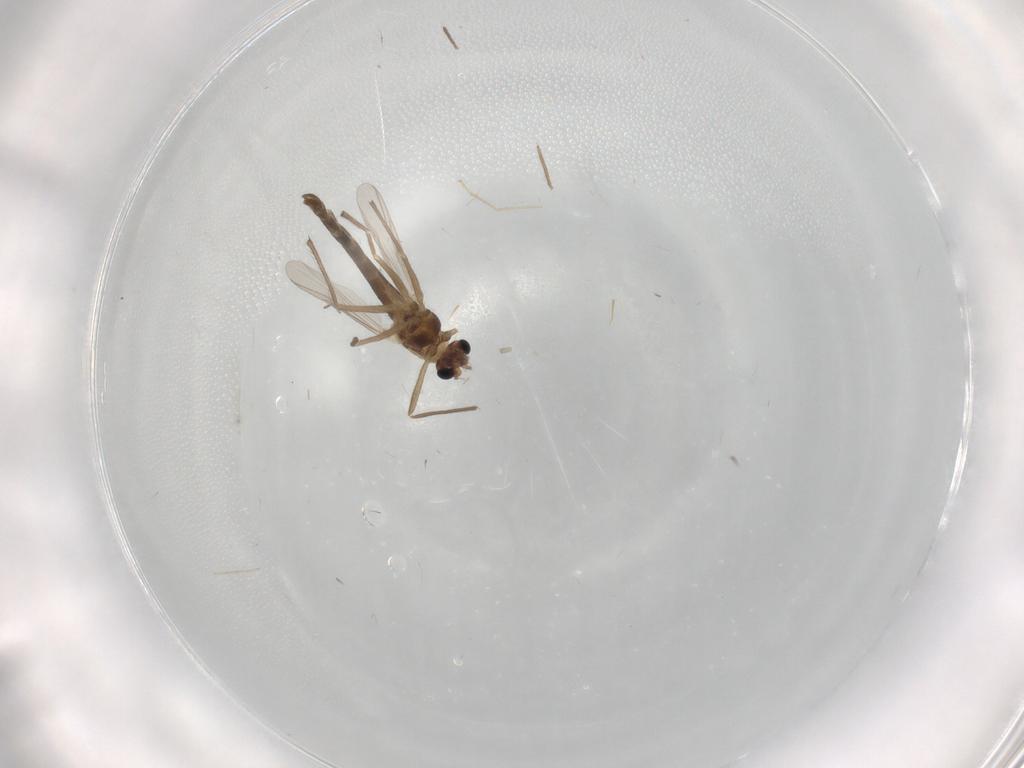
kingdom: Animalia
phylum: Arthropoda
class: Insecta
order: Diptera
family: Chironomidae
